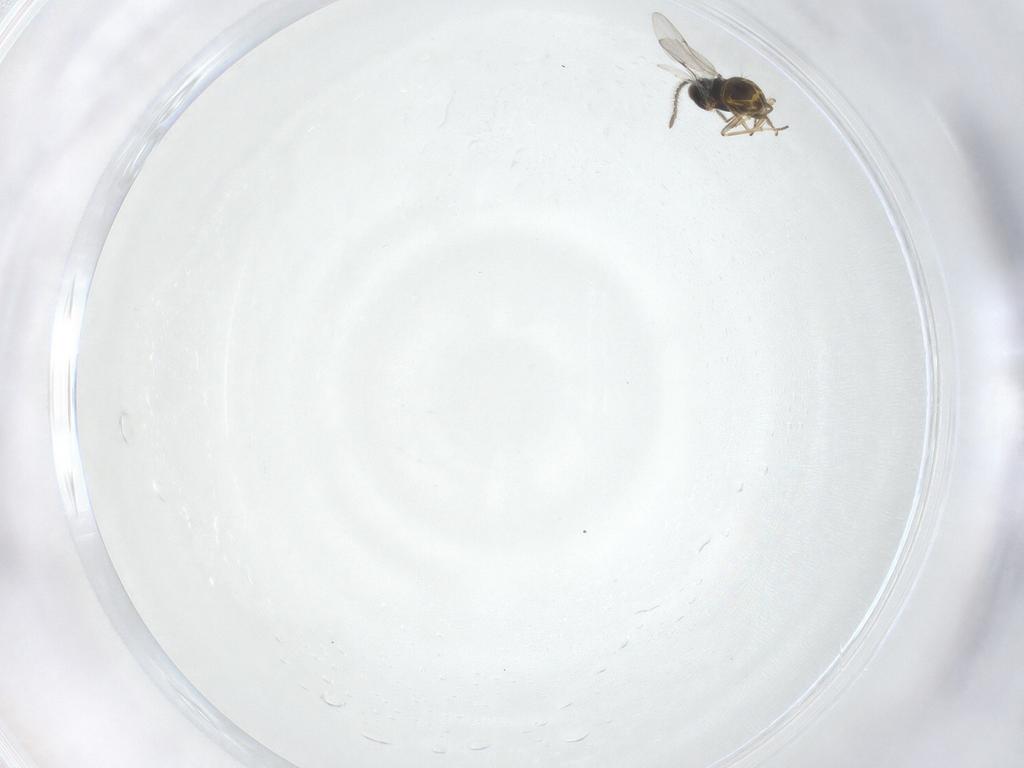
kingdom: Animalia
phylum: Arthropoda
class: Insecta
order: Hymenoptera
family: Encyrtidae
